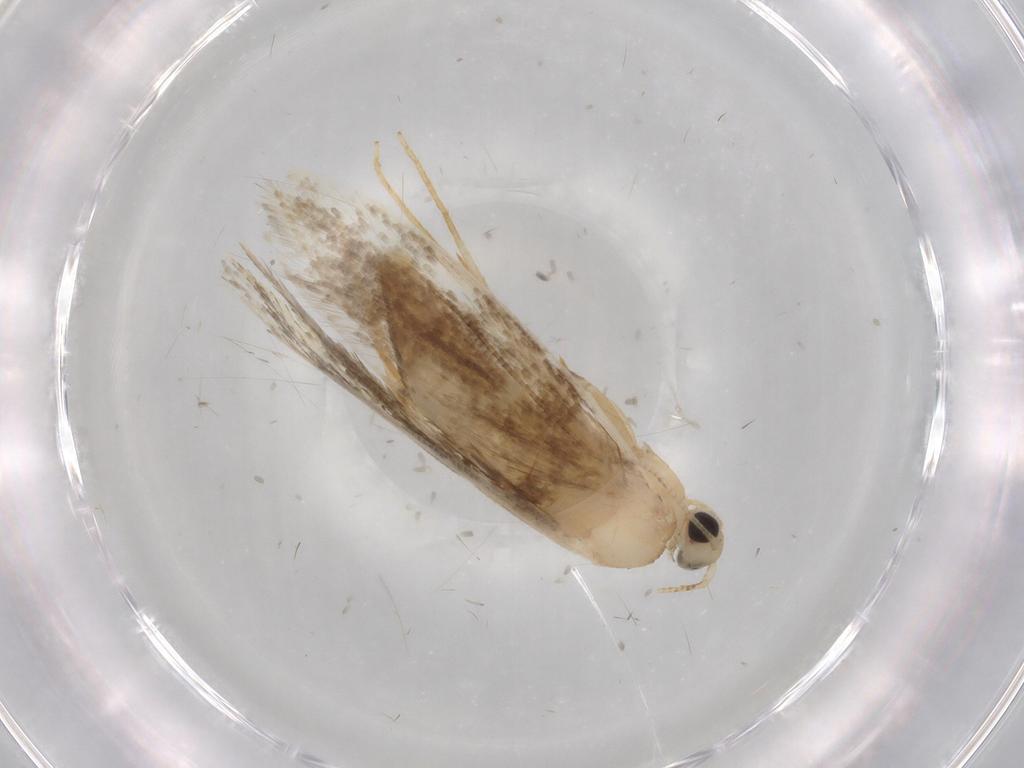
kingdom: Animalia
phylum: Arthropoda
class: Insecta
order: Lepidoptera
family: Tineidae
